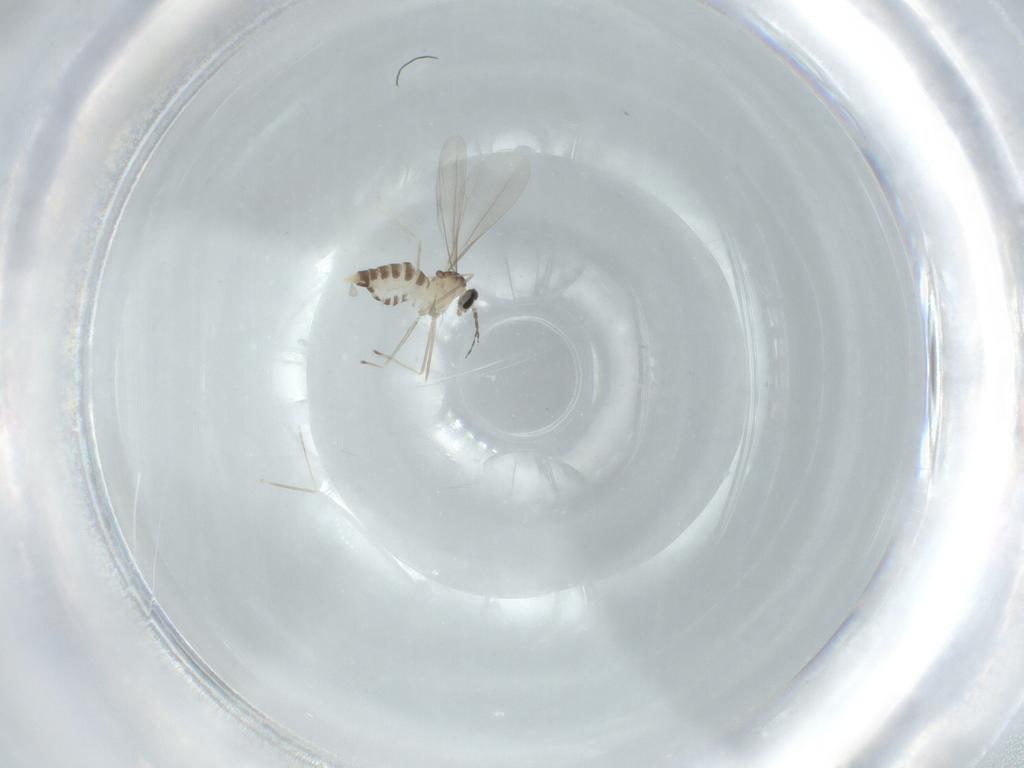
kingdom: Animalia
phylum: Arthropoda
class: Insecta
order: Diptera
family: Cecidomyiidae
